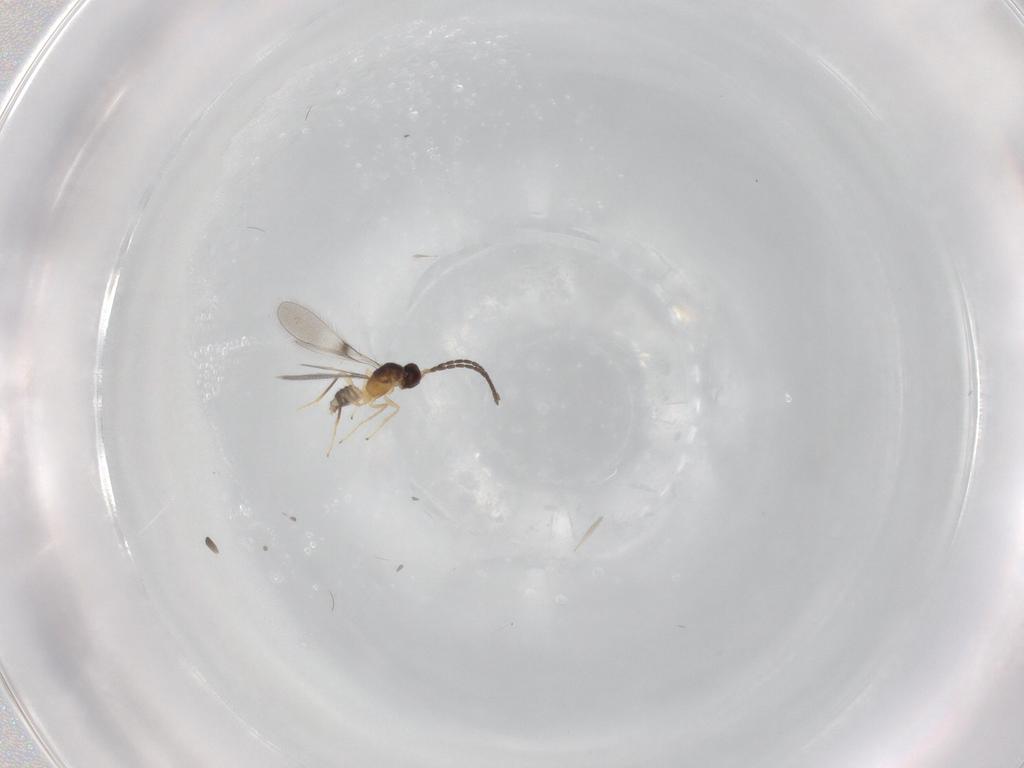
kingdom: Animalia
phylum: Arthropoda
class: Insecta
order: Hymenoptera
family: Mymaridae
